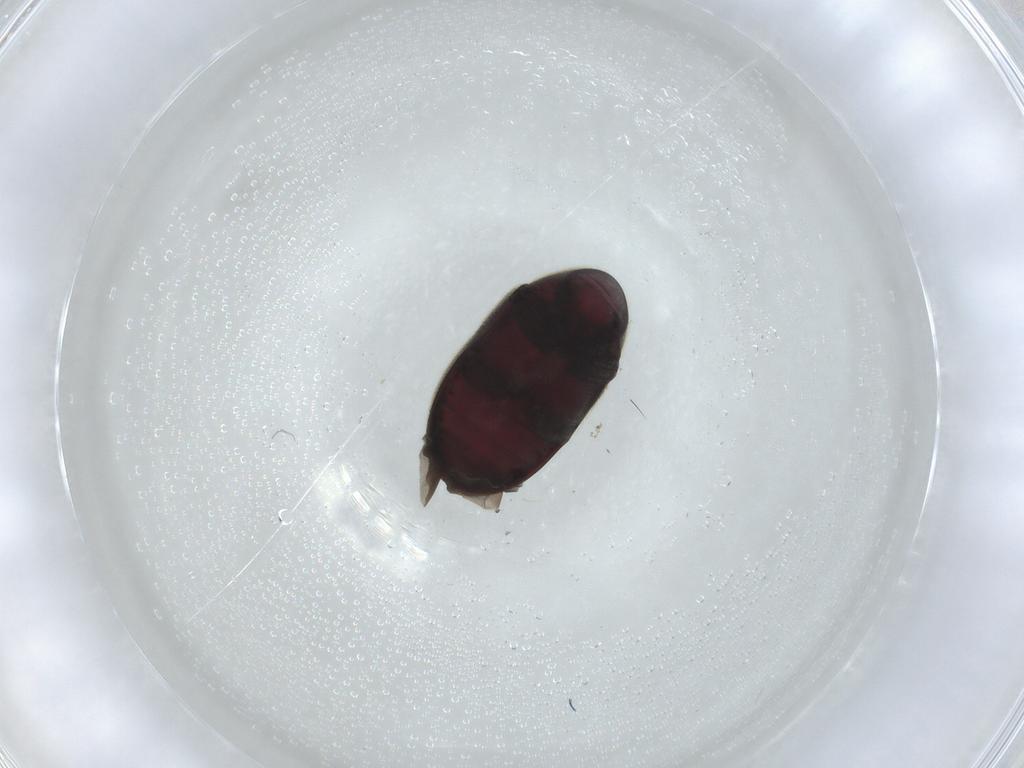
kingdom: Animalia
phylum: Arthropoda
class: Insecta
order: Coleoptera
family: Ptinidae
